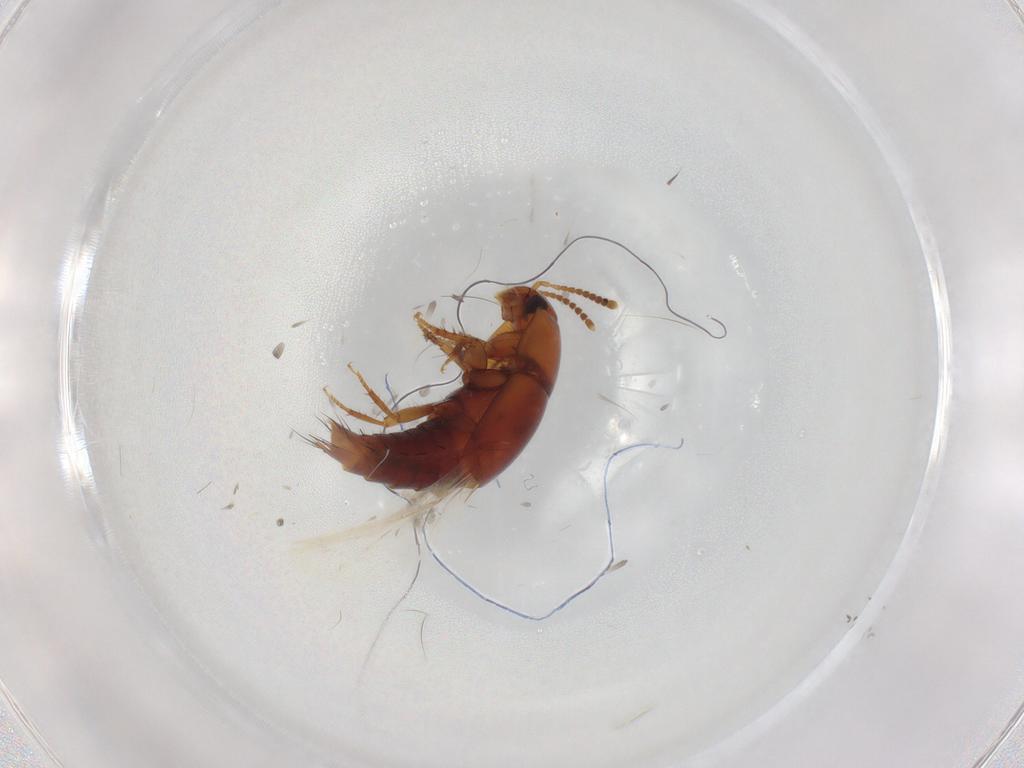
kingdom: Animalia
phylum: Arthropoda
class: Insecta
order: Coleoptera
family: Staphylinidae
